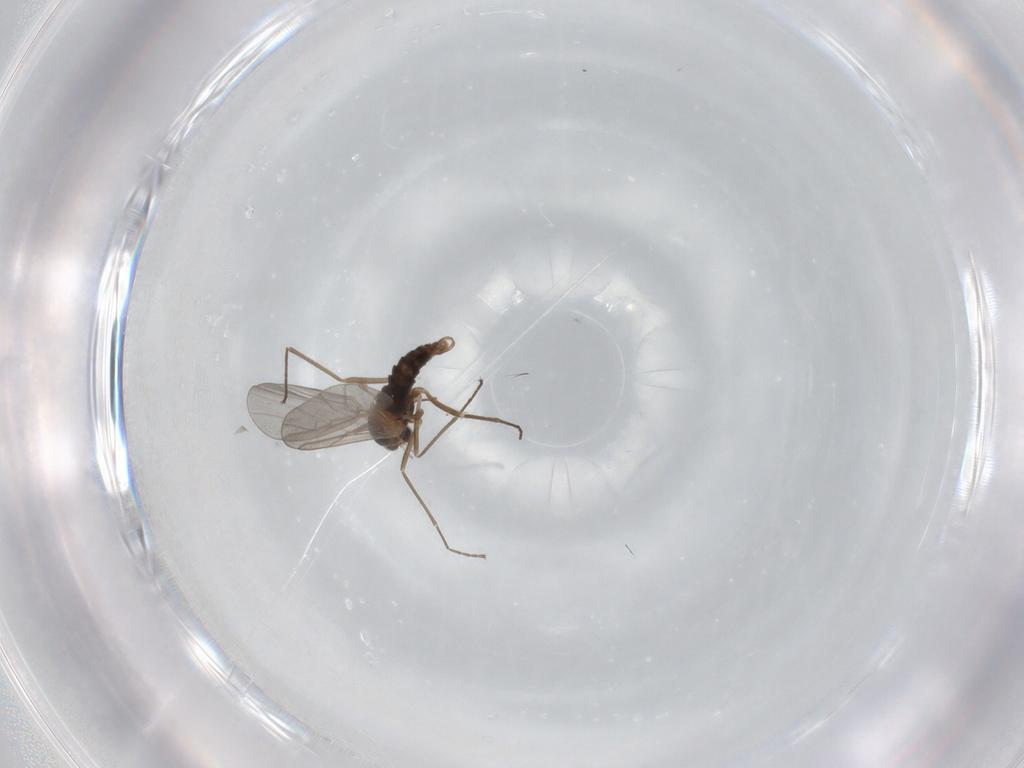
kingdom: Animalia
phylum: Arthropoda
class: Insecta
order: Diptera
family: Cecidomyiidae
